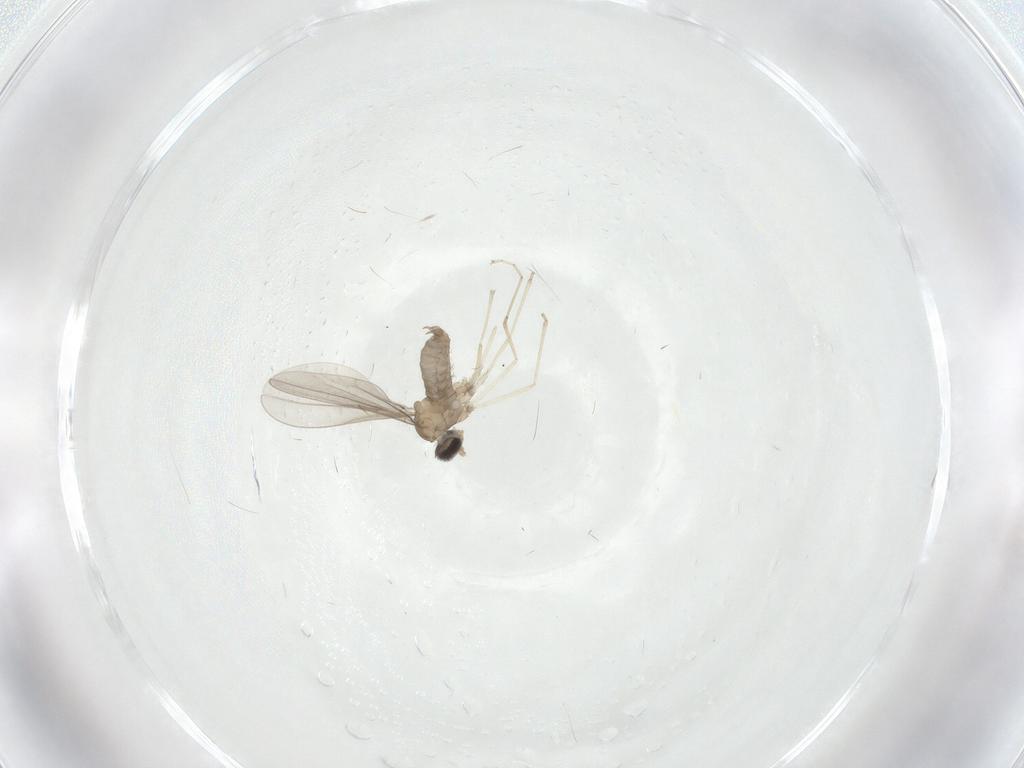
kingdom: Animalia
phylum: Arthropoda
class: Insecta
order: Diptera
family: Cecidomyiidae
